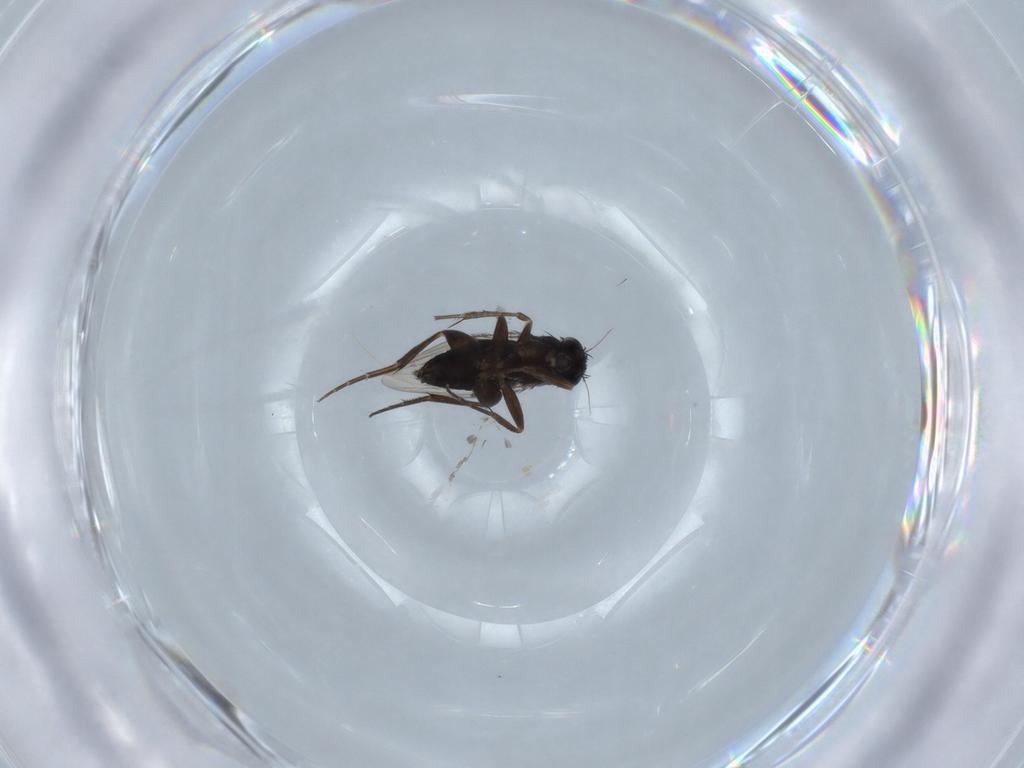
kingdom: Animalia
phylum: Arthropoda
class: Insecta
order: Diptera
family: Phoridae
